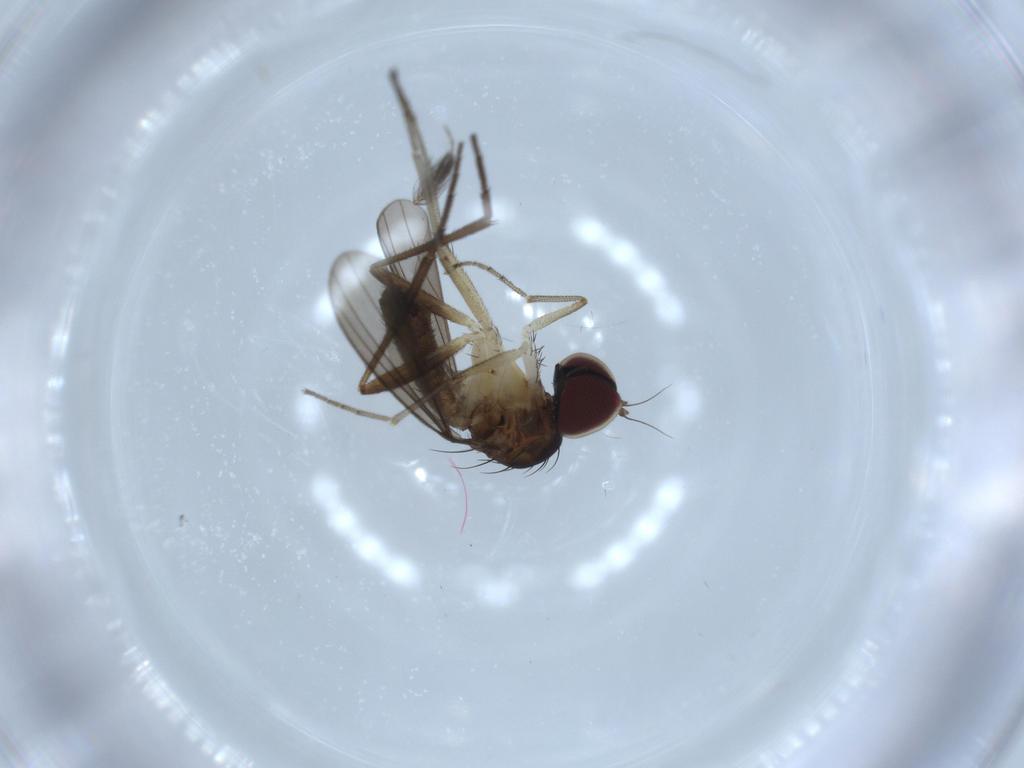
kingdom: Animalia
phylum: Arthropoda
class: Insecta
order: Diptera
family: Dolichopodidae
